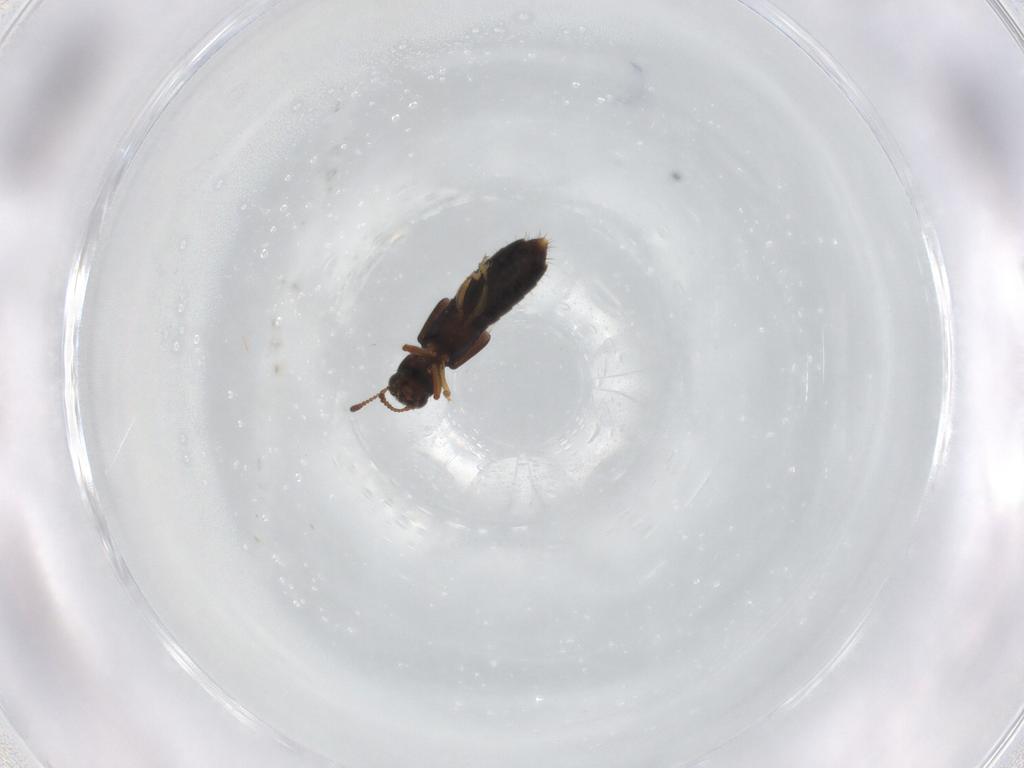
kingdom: Animalia
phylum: Arthropoda
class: Insecta
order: Coleoptera
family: Staphylinidae
